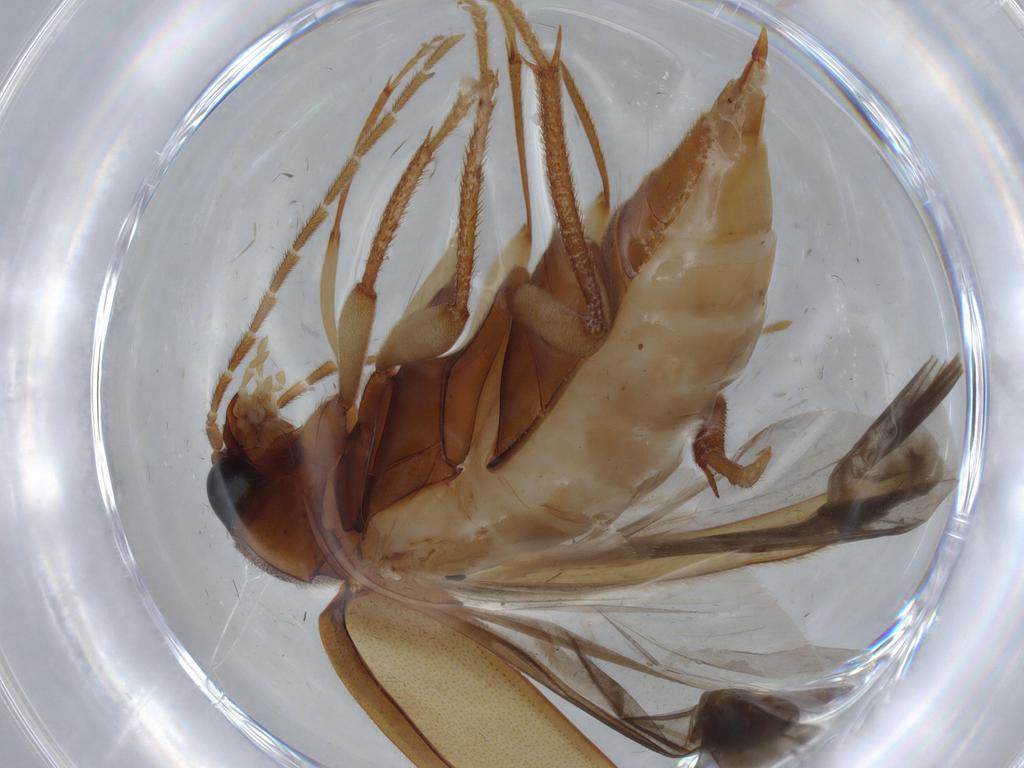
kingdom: Animalia
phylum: Arthropoda
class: Insecta
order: Coleoptera
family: Ptilodactylidae
